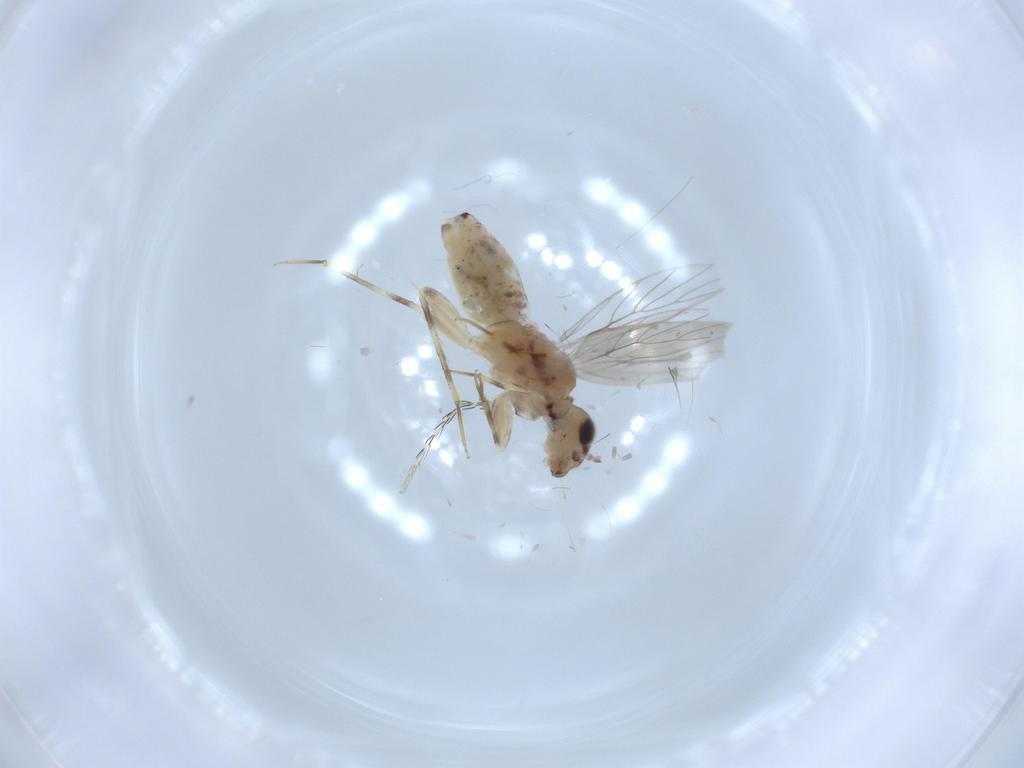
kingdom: Animalia
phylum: Arthropoda
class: Insecta
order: Psocodea
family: Lepidopsocidae
